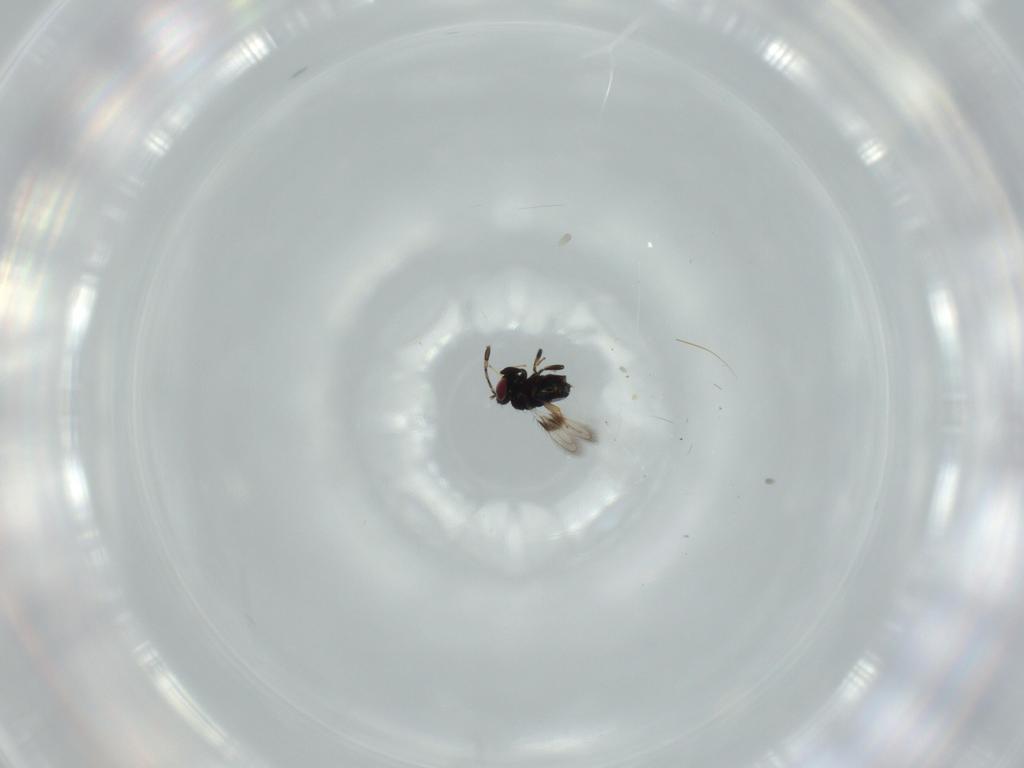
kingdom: Animalia
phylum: Arthropoda
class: Insecta
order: Hymenoptera
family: Azotidae
